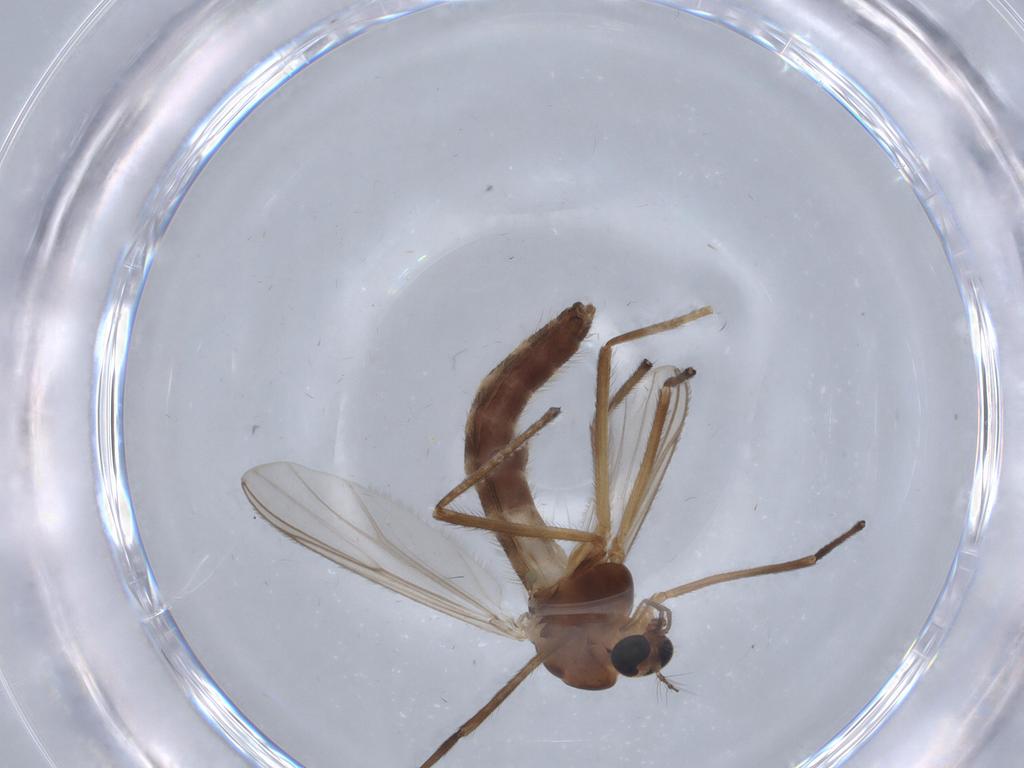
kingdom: Animalia
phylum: Arthropoda
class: Insecta
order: Diptera
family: Chironomidae
